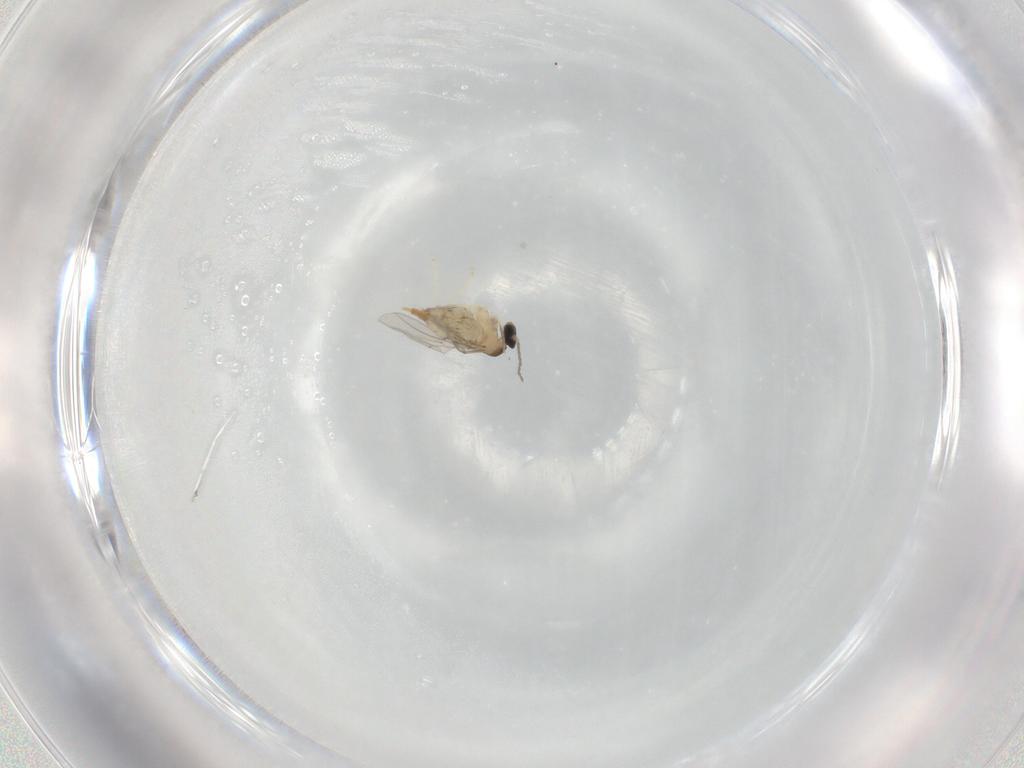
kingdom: Animalia
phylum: Arthropoda
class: Insecta
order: Diptera
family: Cecidomyiidae
